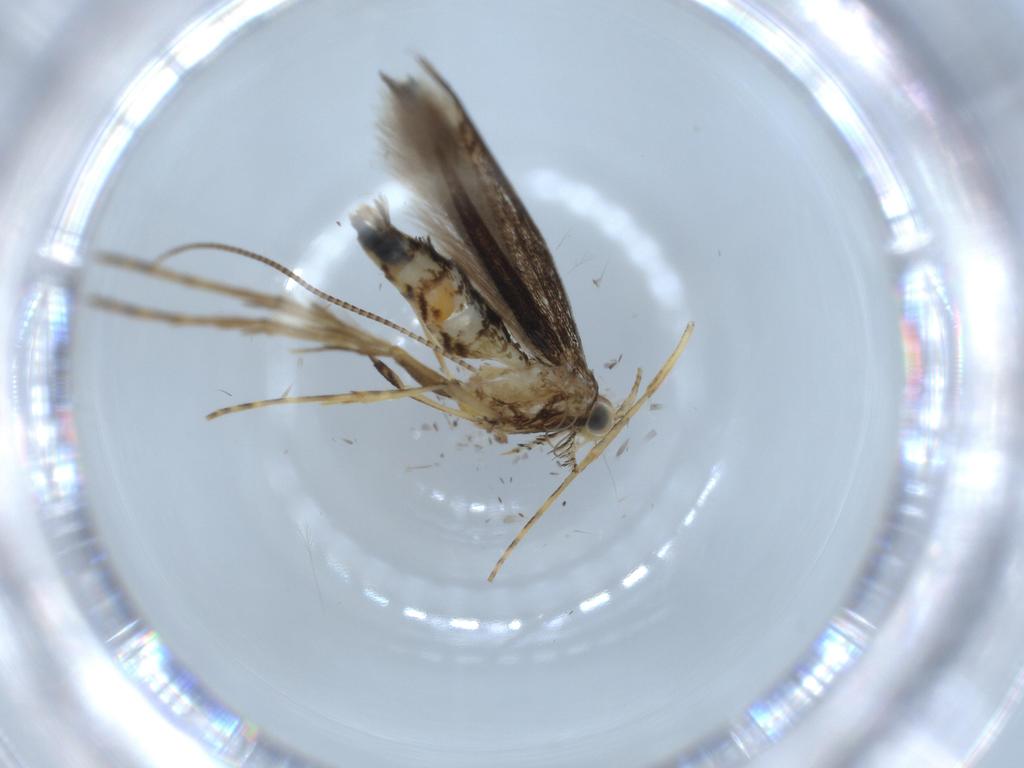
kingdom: Animalia
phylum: Arthropoda
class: Insecta
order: Lepidoptera
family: Gracillariidae
